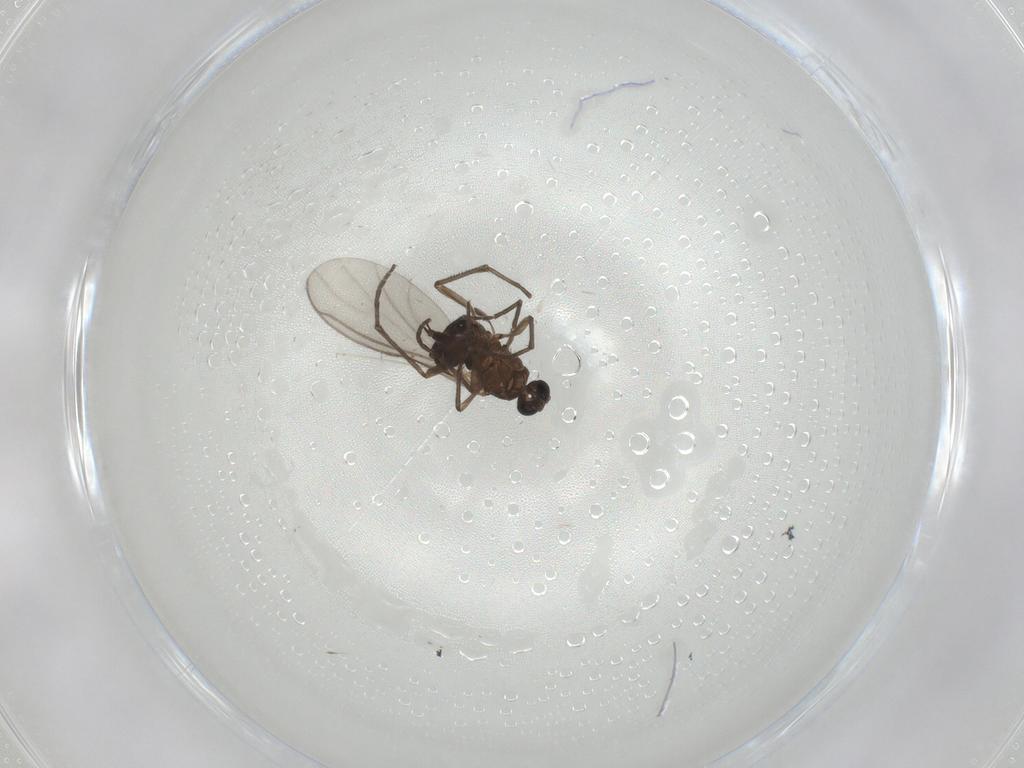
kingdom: Animalia
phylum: Arthropoda
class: Insecta
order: Diptera
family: Cecidomyiidae
